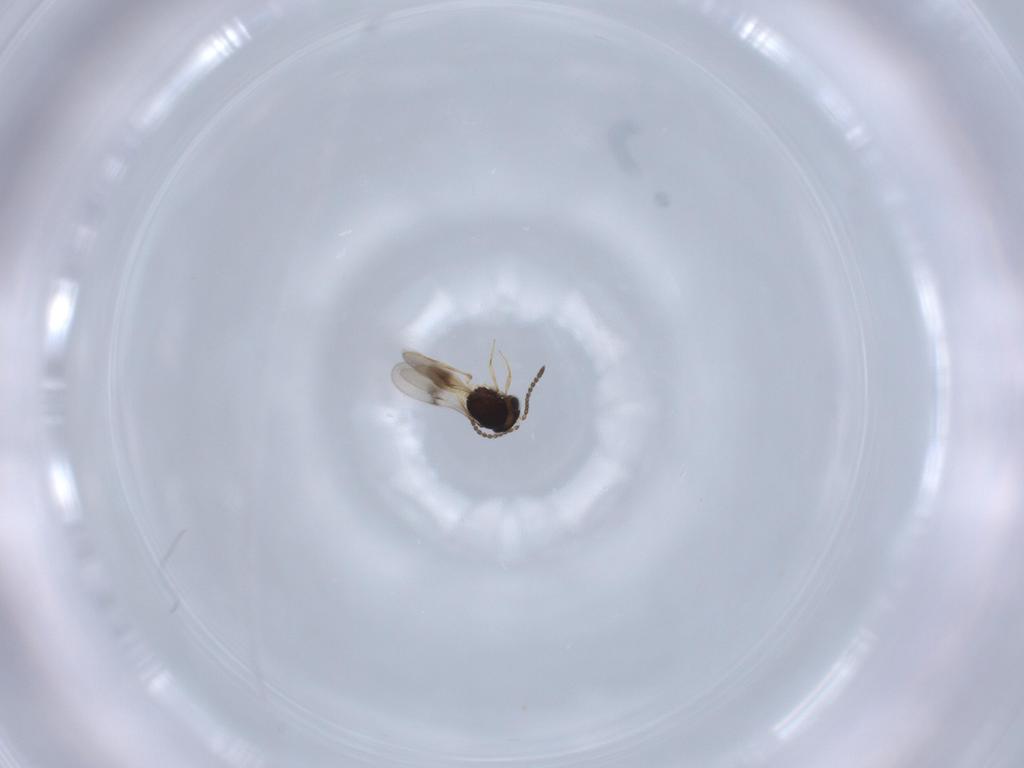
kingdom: Animalia
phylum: Arthropoda
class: Insecta
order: Hymenoptera
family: Scelionidae
